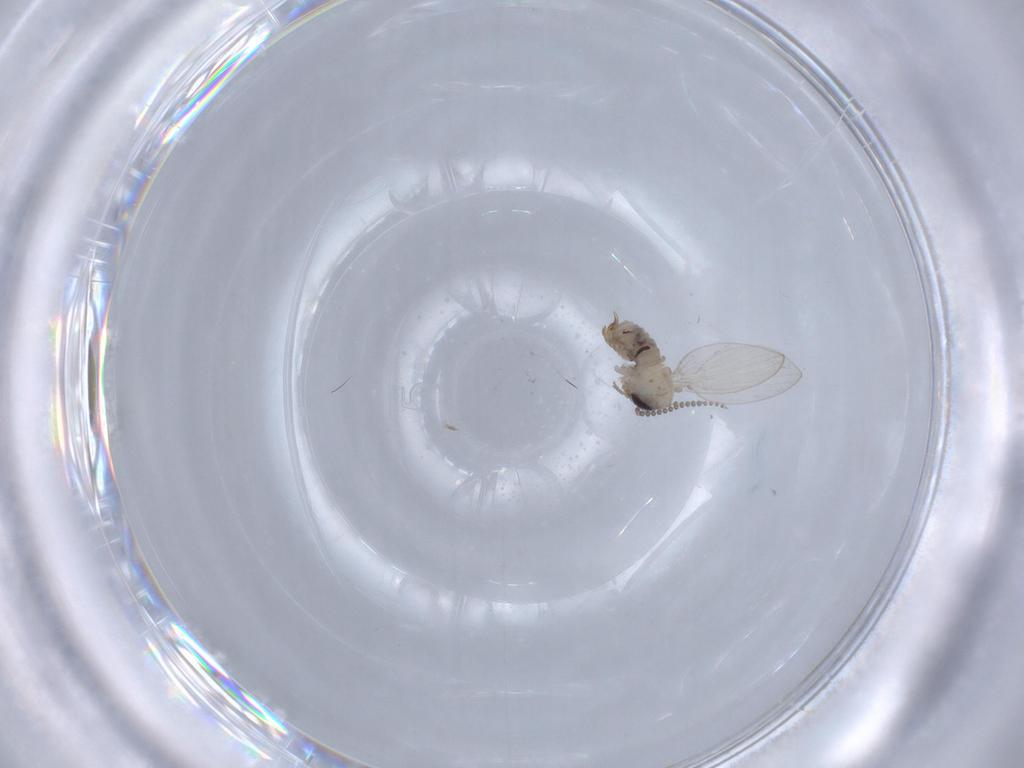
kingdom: Animalia
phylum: Arthropoda
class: Insecta
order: Diptera
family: Psychodidae
